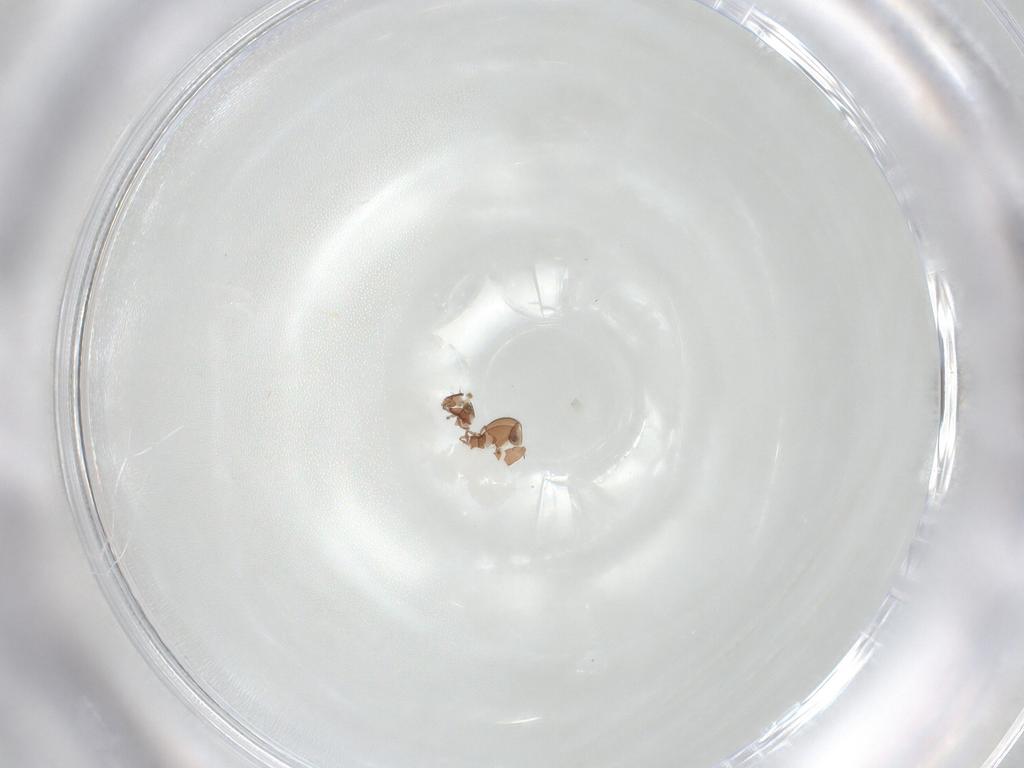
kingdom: Animalia
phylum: Arthropoda
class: Arachnida
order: Sarcoptiformes
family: Oribatulidae
